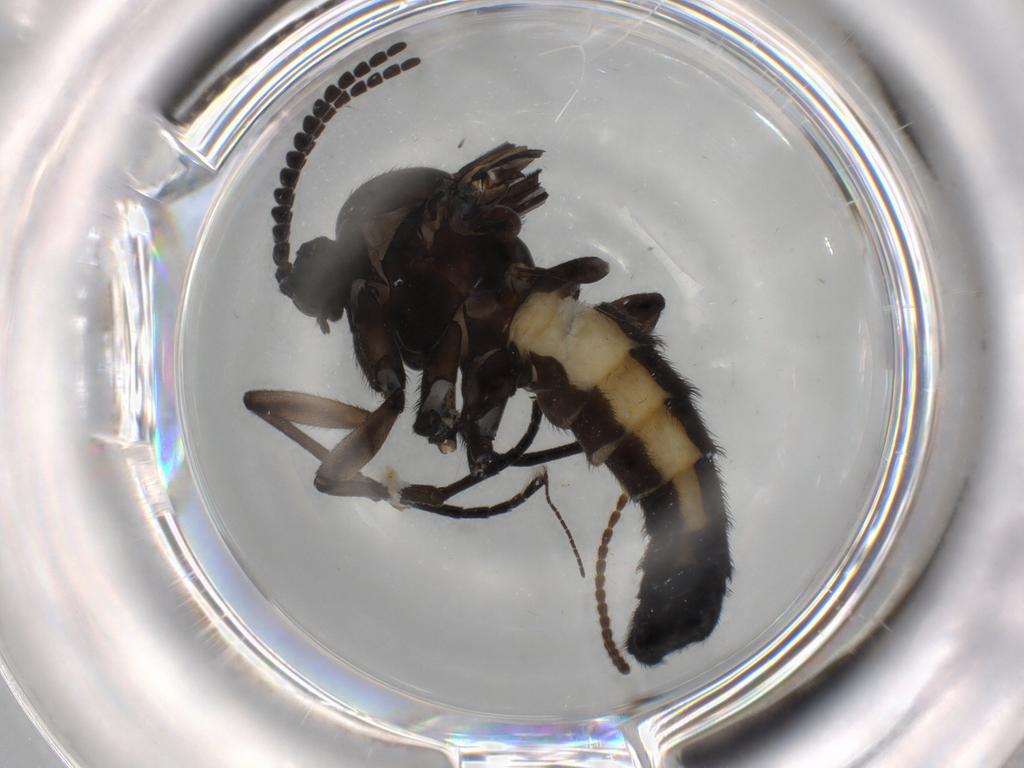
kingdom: Animalia
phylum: Arthropoda
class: Insecta
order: Diptera
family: Sciaridae
